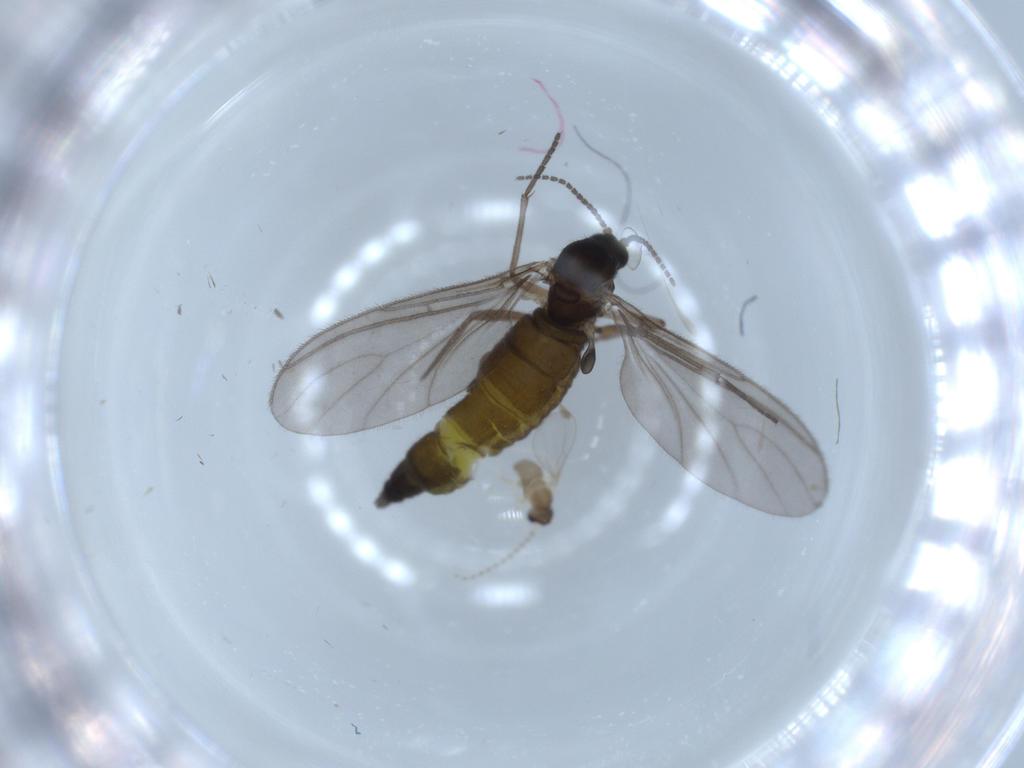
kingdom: Animalia
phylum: Arthropoda
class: Insecta
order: Diptera
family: Sciaridae
